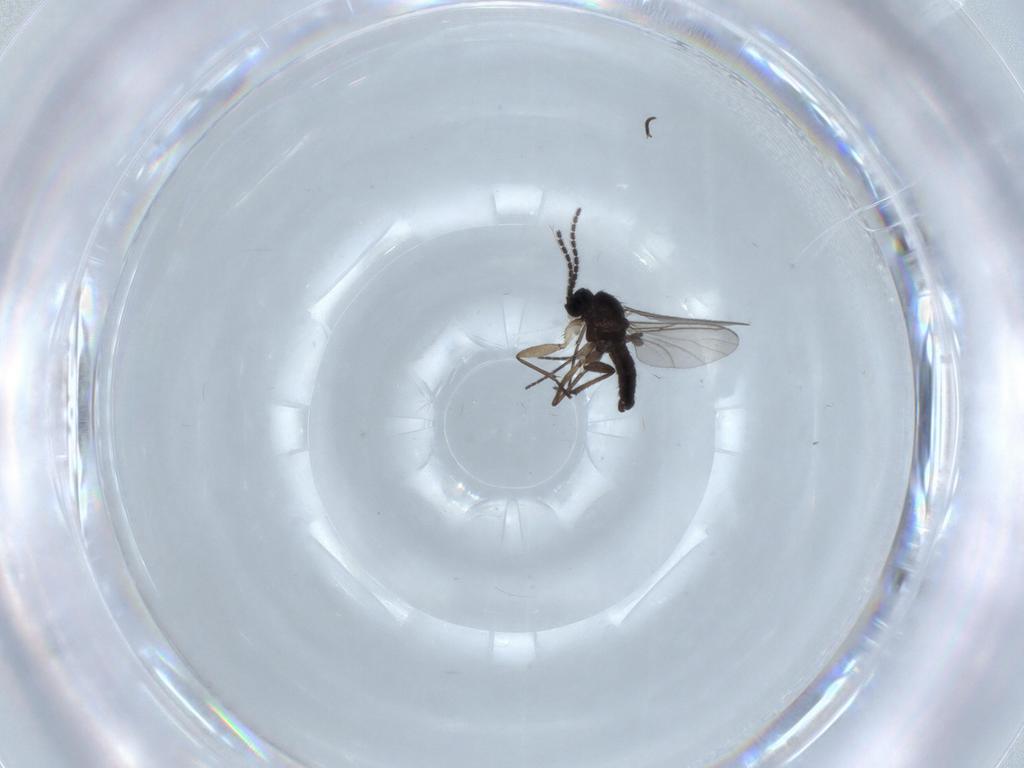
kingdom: Animalia
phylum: Arthropoda
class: Insecta
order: Diptera
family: Sciaridae
